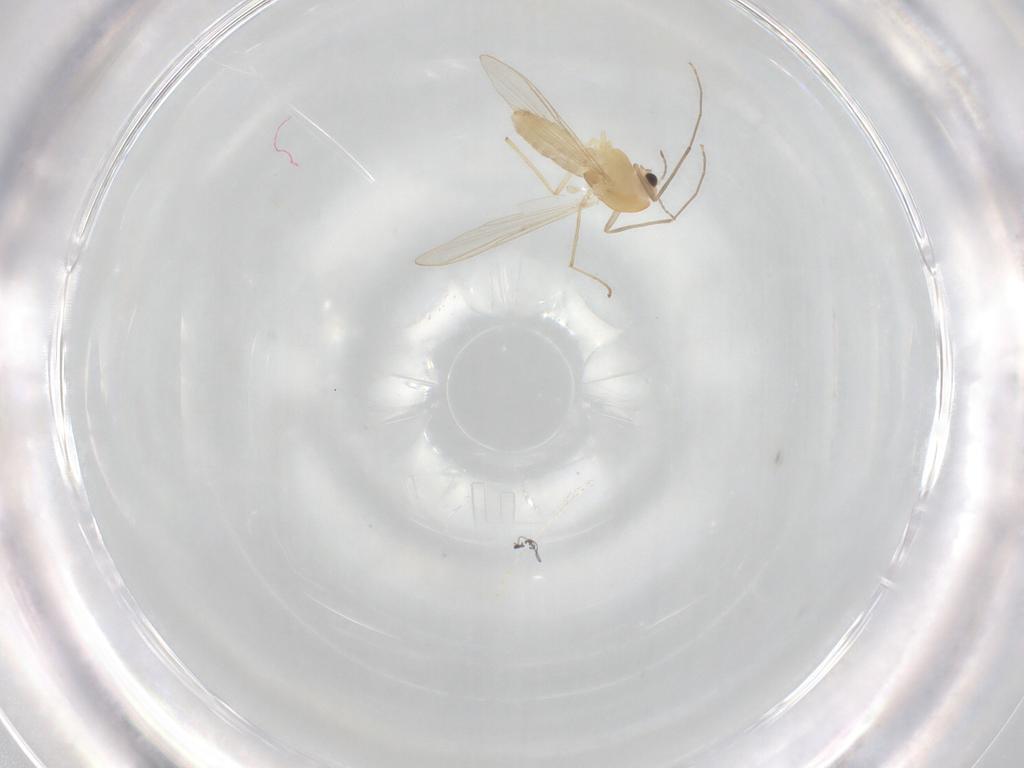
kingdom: Animalia
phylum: Arthropoda
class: Insecta
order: Diptera
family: Chironomidae
